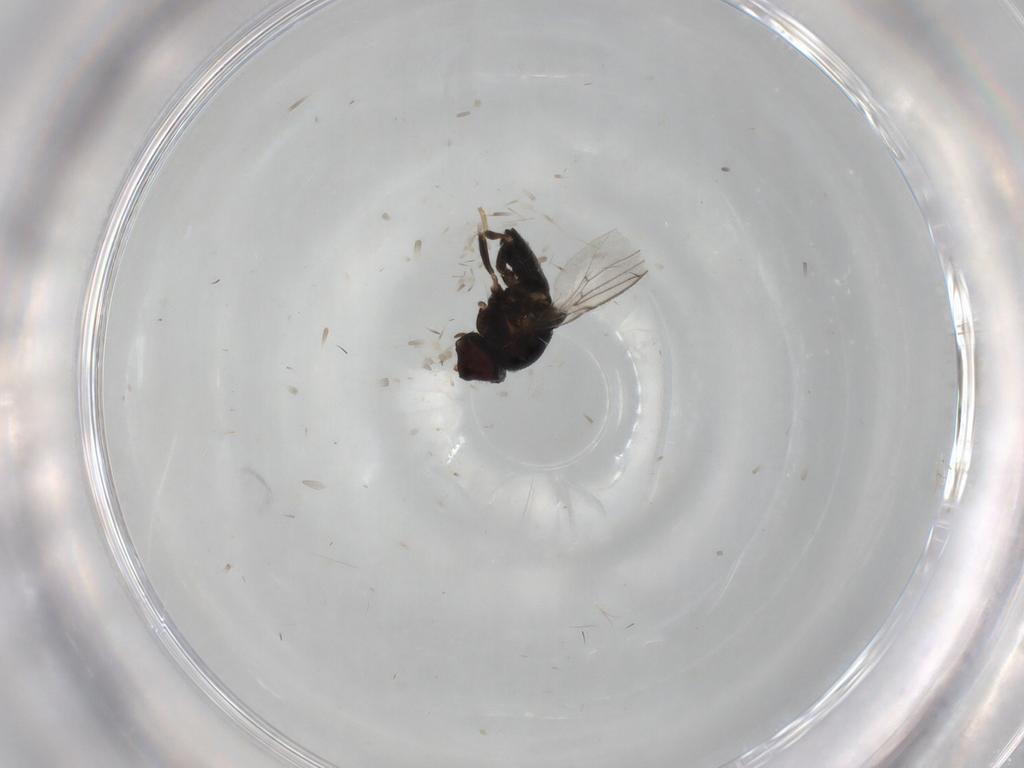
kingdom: Animalia
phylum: Arthropoda
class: Insecta
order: Diptera
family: Chloropidae
